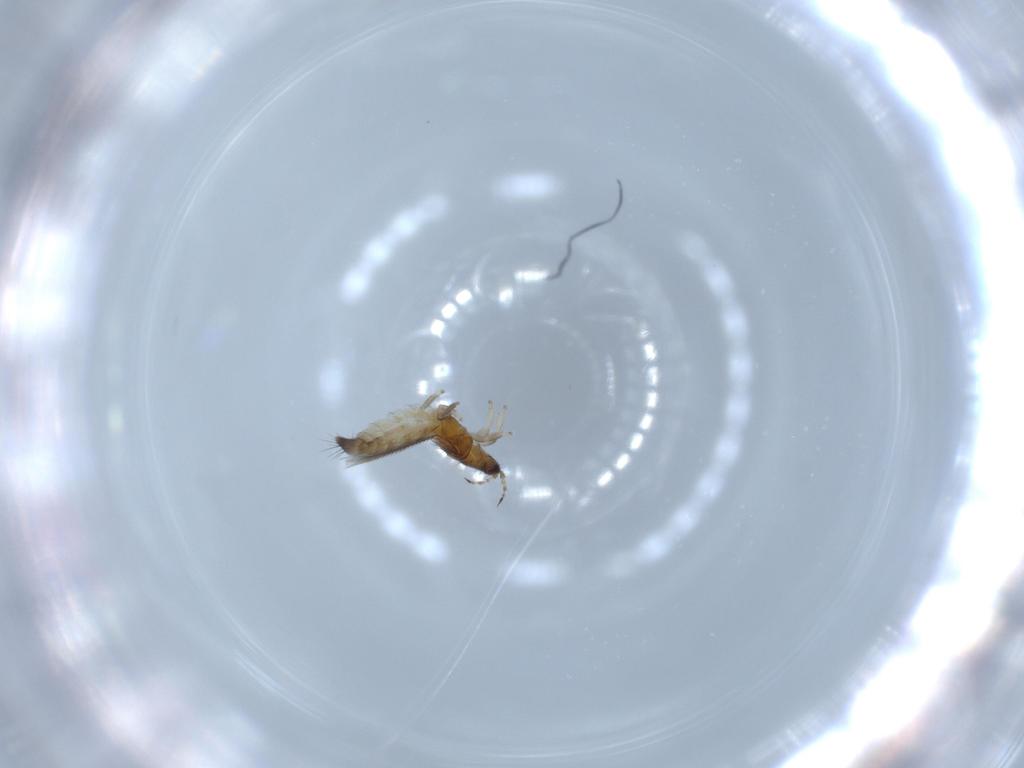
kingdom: Animalia
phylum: Arthropoda
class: Insecta
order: Thysanoptera
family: Thripidae
